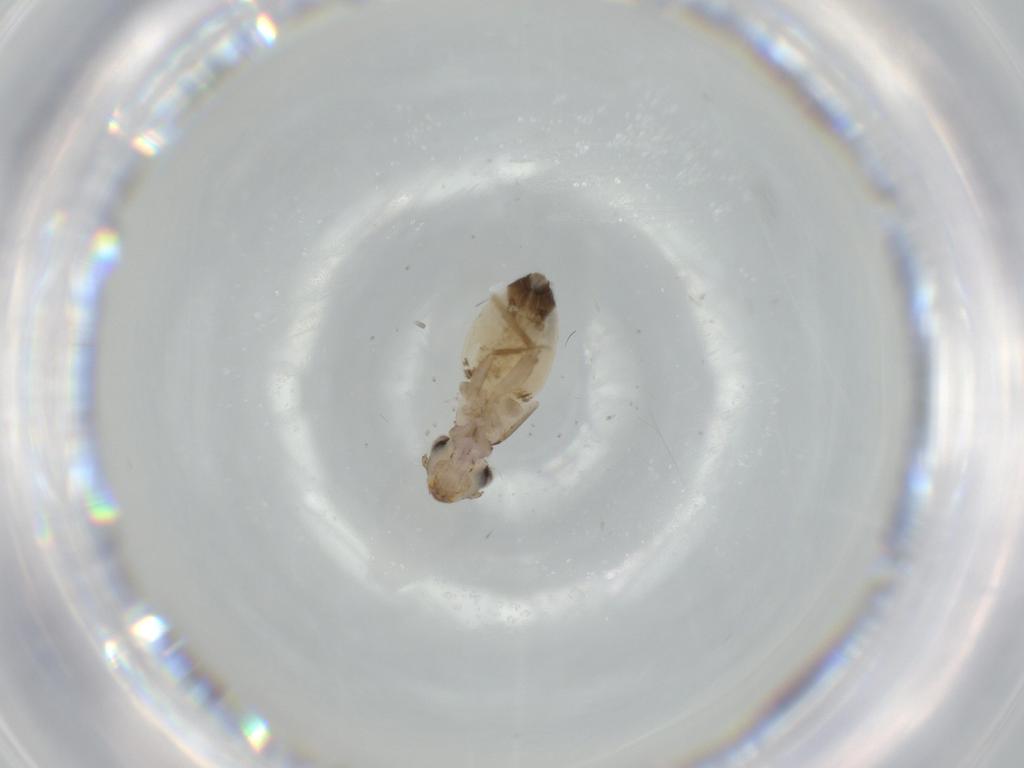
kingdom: Animalia
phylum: Arthropoda
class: Insecta
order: Psocodea
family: Lepidopsocidae
